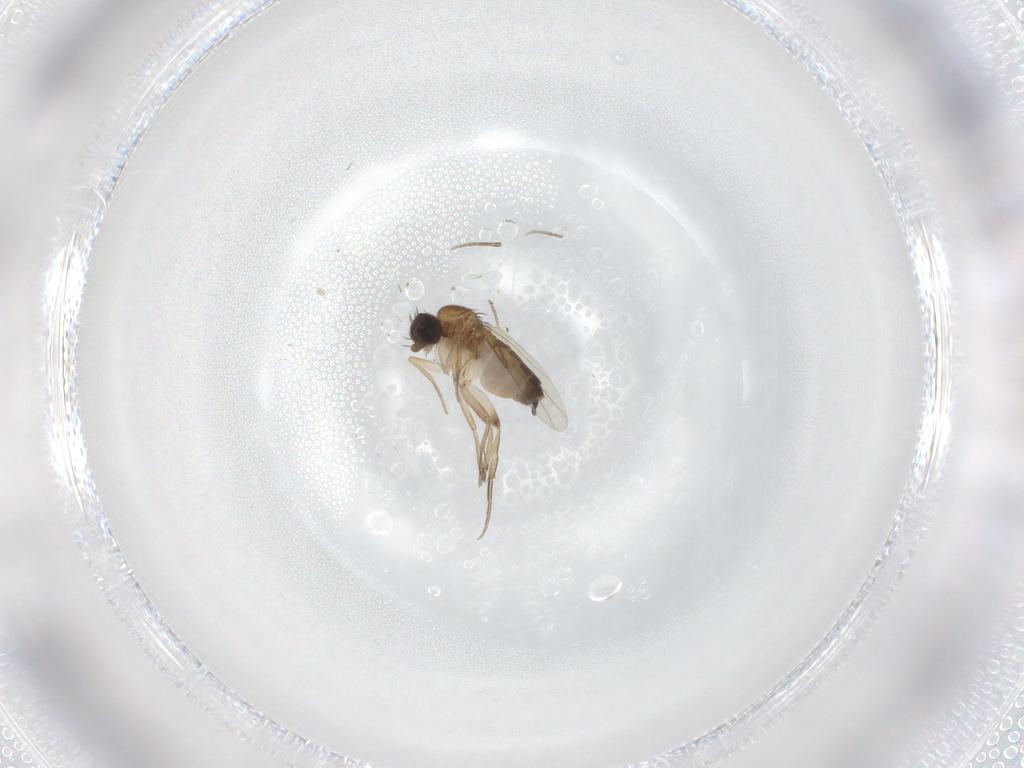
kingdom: Animalia
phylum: Arthropoda
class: Insecta
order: Diptera
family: Phoridae
